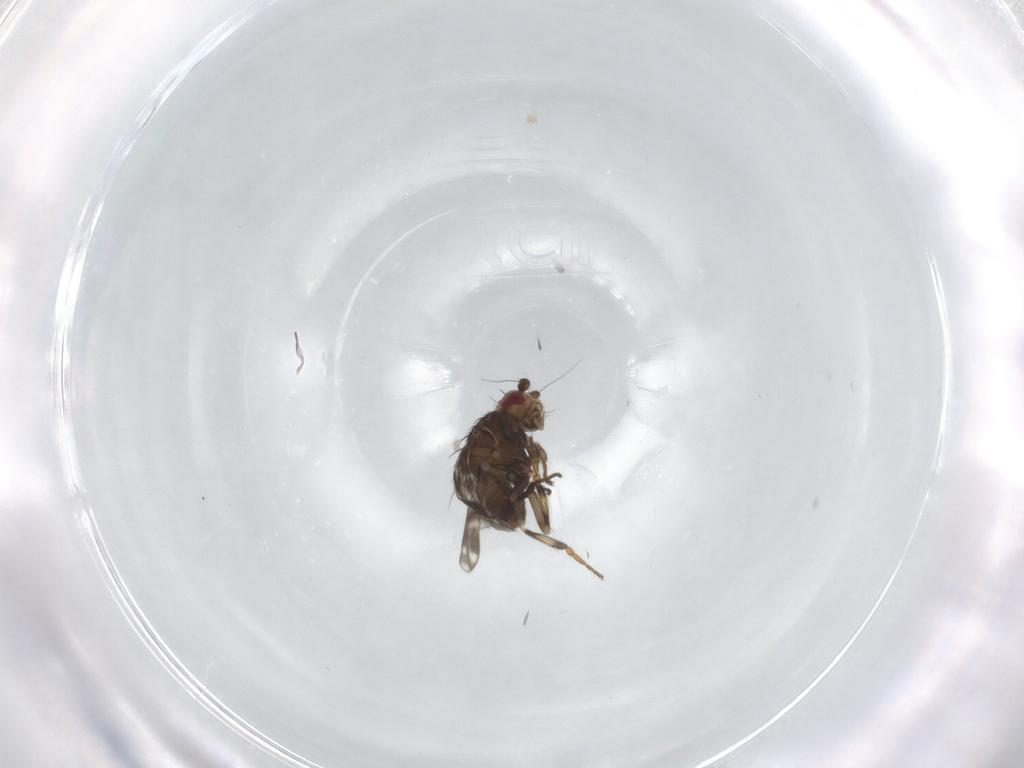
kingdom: Animalia
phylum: Arthropoda
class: Insecta
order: Diptera
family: Sphaeroceridae
